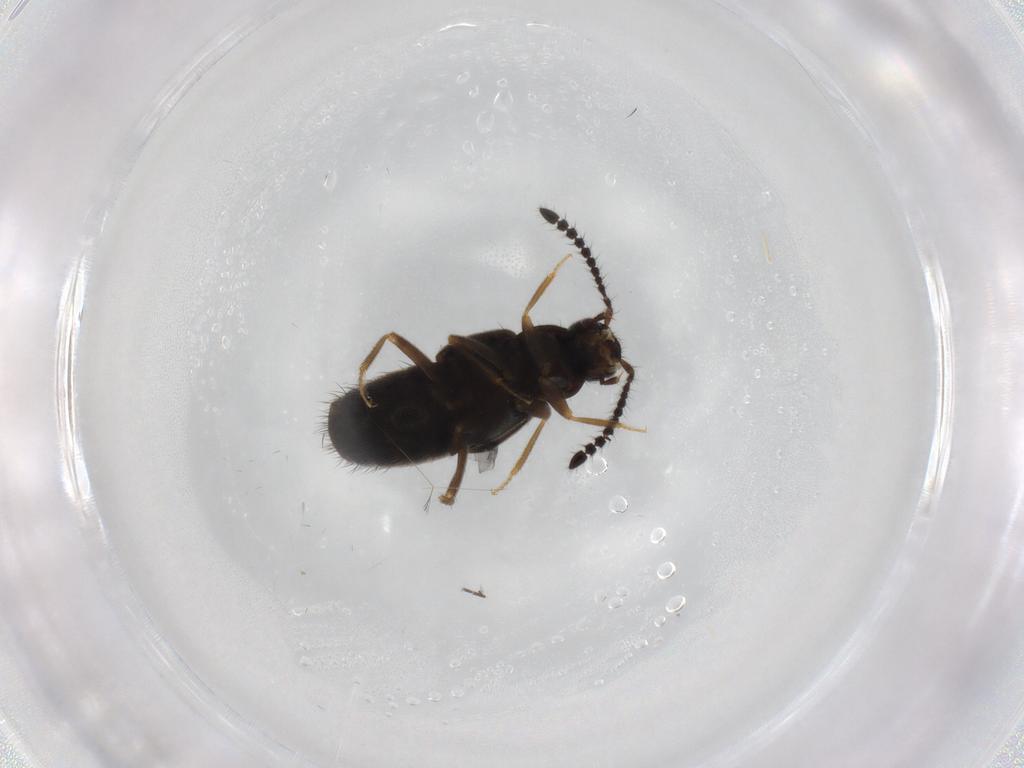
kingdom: Animalia
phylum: Arthropoda
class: Insecta
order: Coleoptera
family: Staphylinidae
